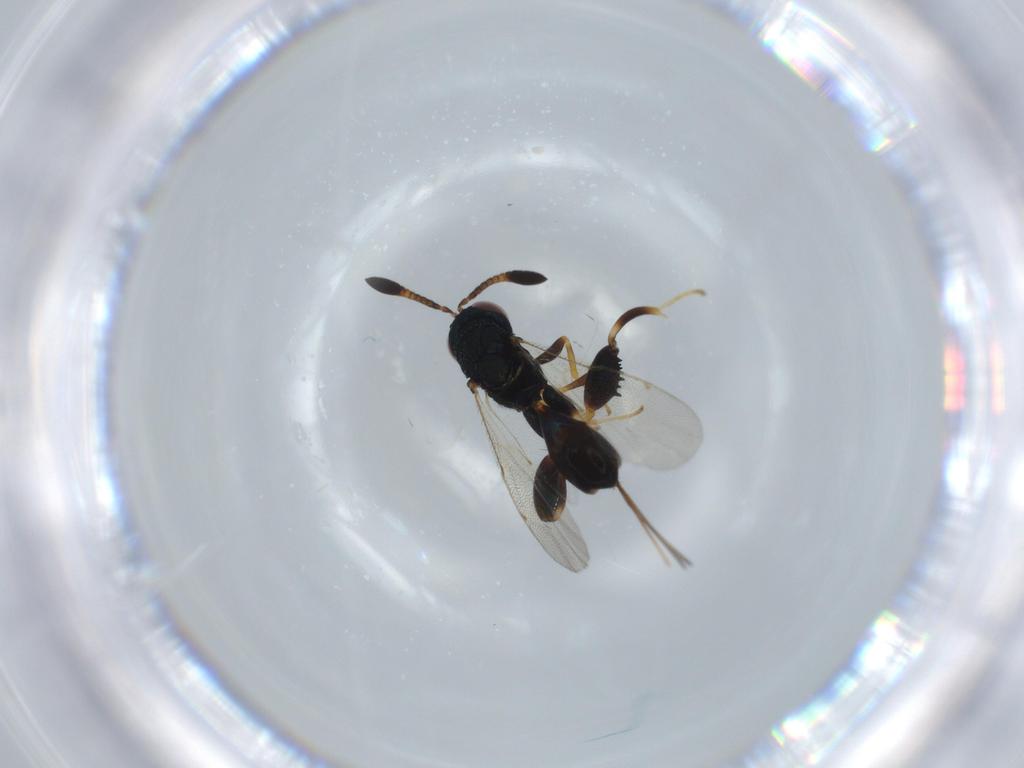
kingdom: Animalia
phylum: Arthropoda
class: Insecta
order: Hymenoptera
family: Torymidae
